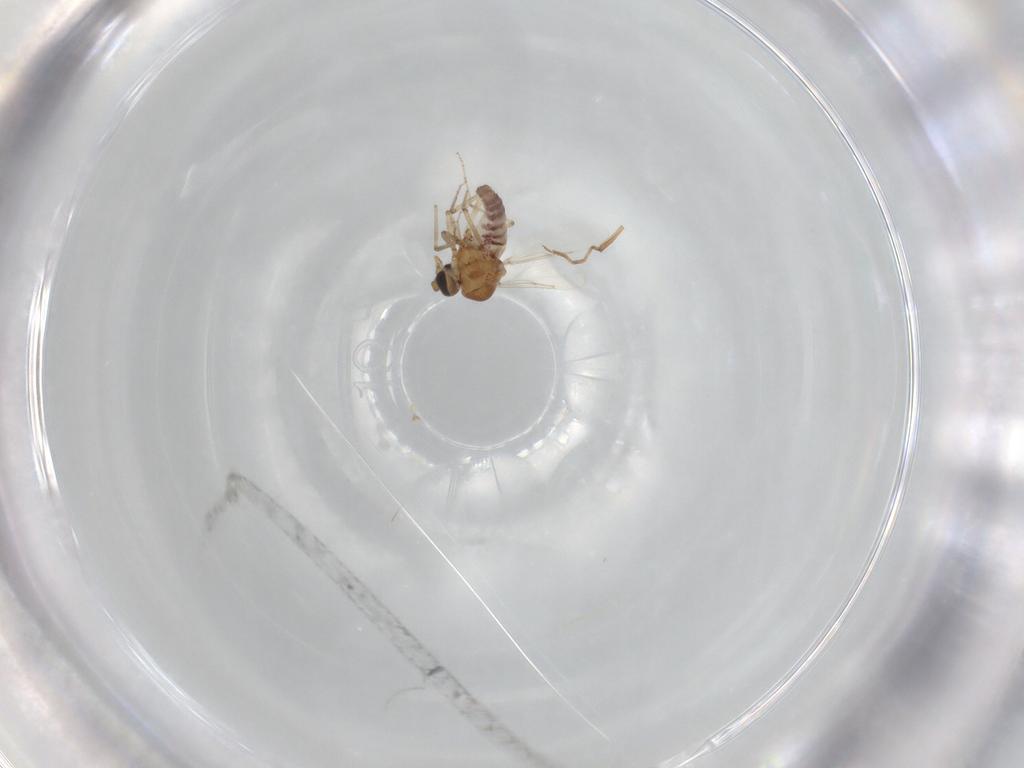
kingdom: Animalia
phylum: Arthropoda
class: Insecta
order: Diptera
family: Ceratopogonidae
